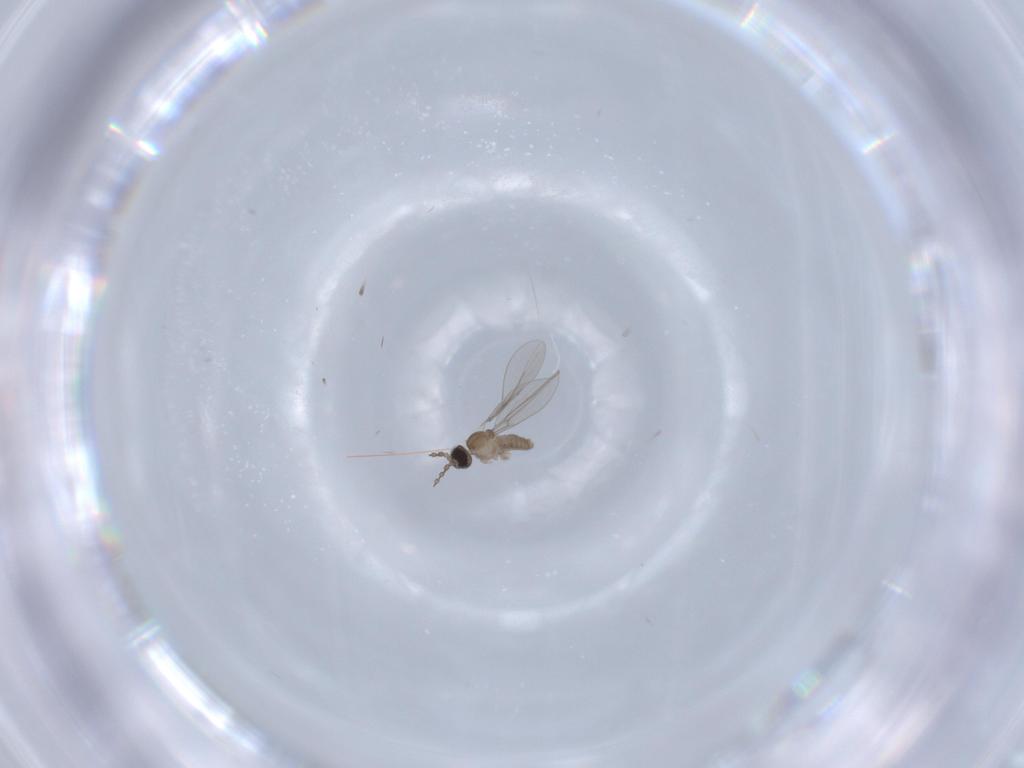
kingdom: Animalia
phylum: Arthropoda
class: Insecta
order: Diptera
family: Cecidomyiidae
